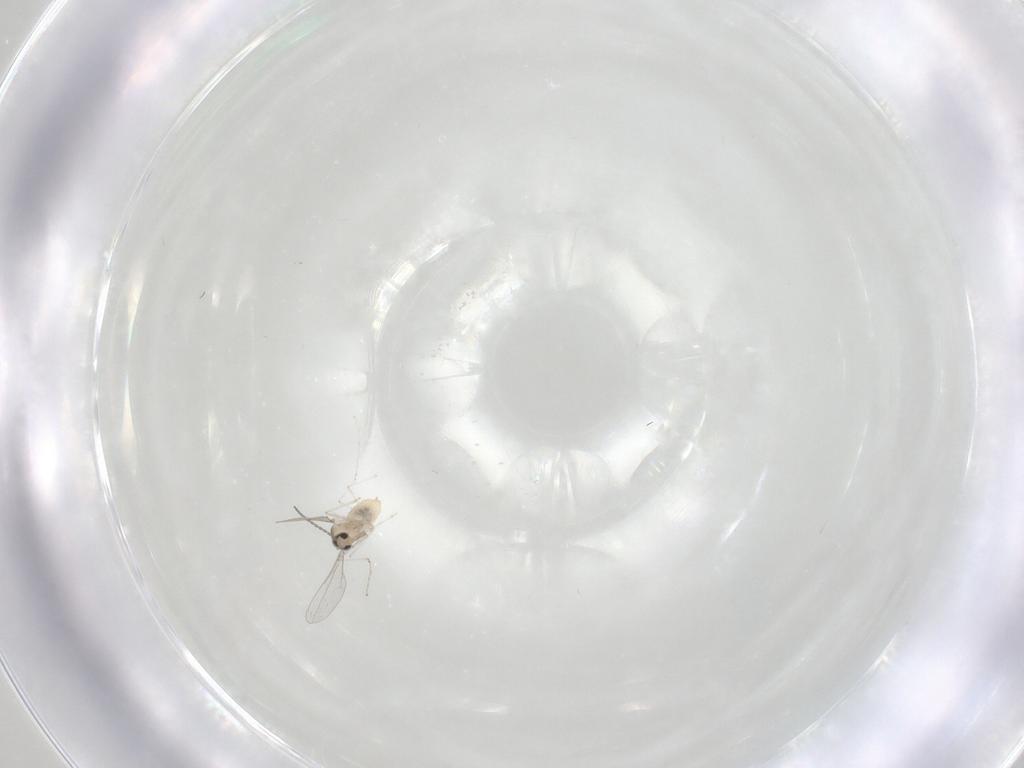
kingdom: Animalia
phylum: Arthropoda
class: Insecta
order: Diptera
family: Cecidomyiidae
